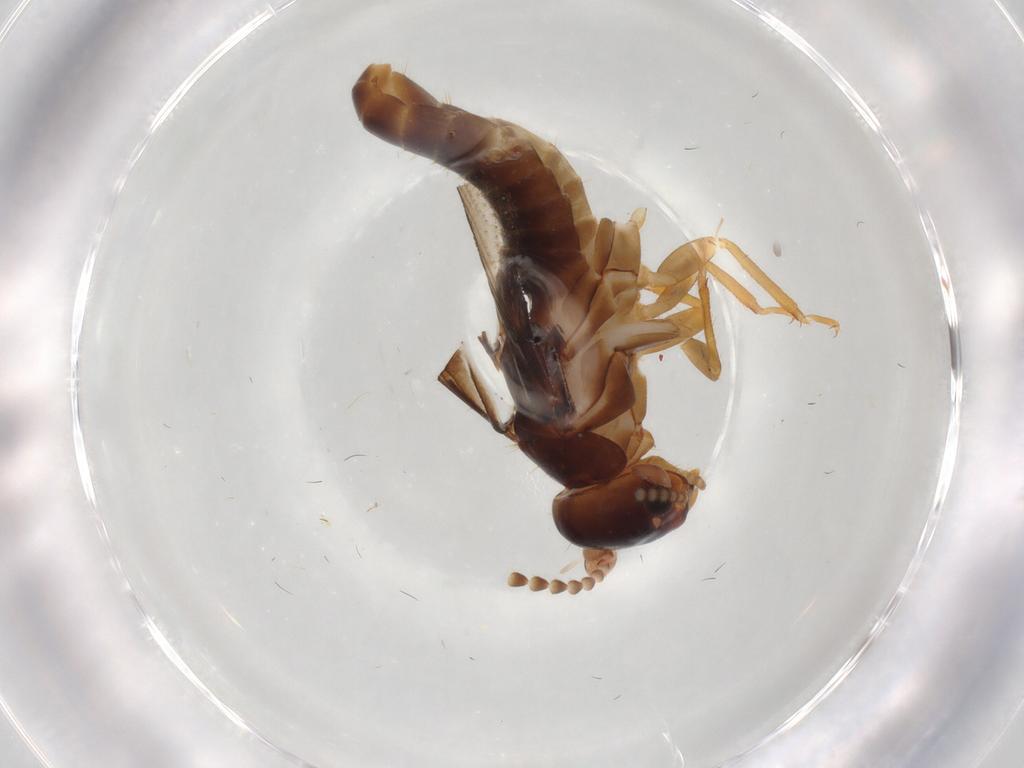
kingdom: Animalia
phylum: Arthropoda
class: Insecta
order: Blattodea
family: Kalotermitidae
